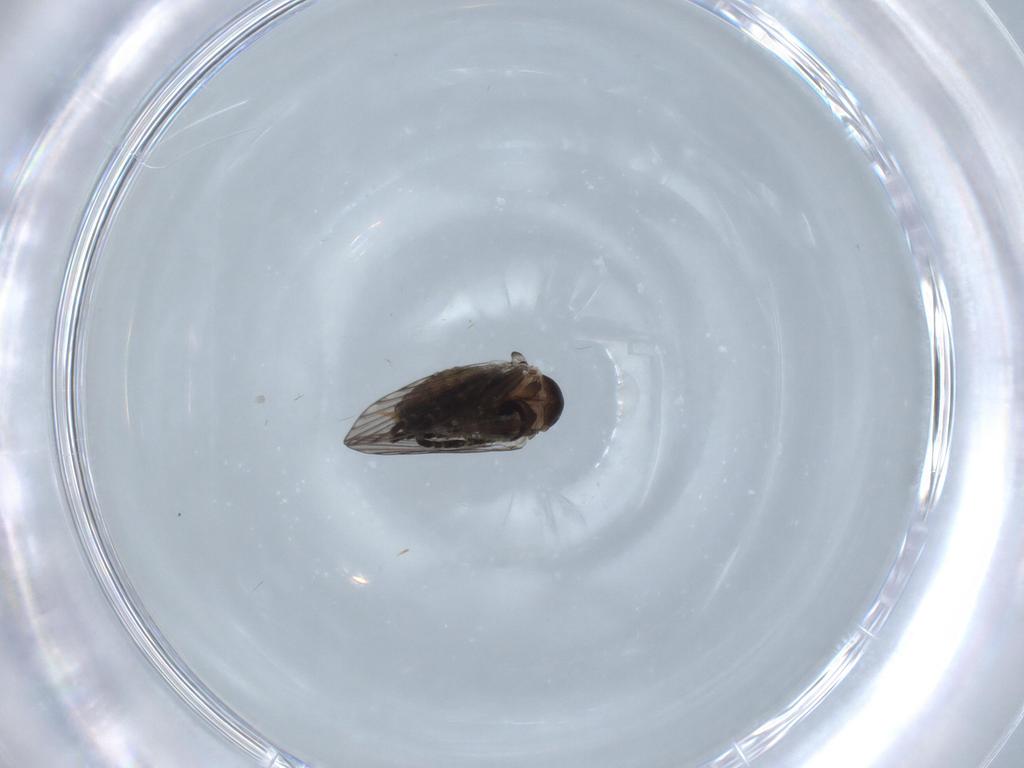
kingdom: Animalia
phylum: Arthropoda
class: Insecta
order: Diptera
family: Psychodidae
